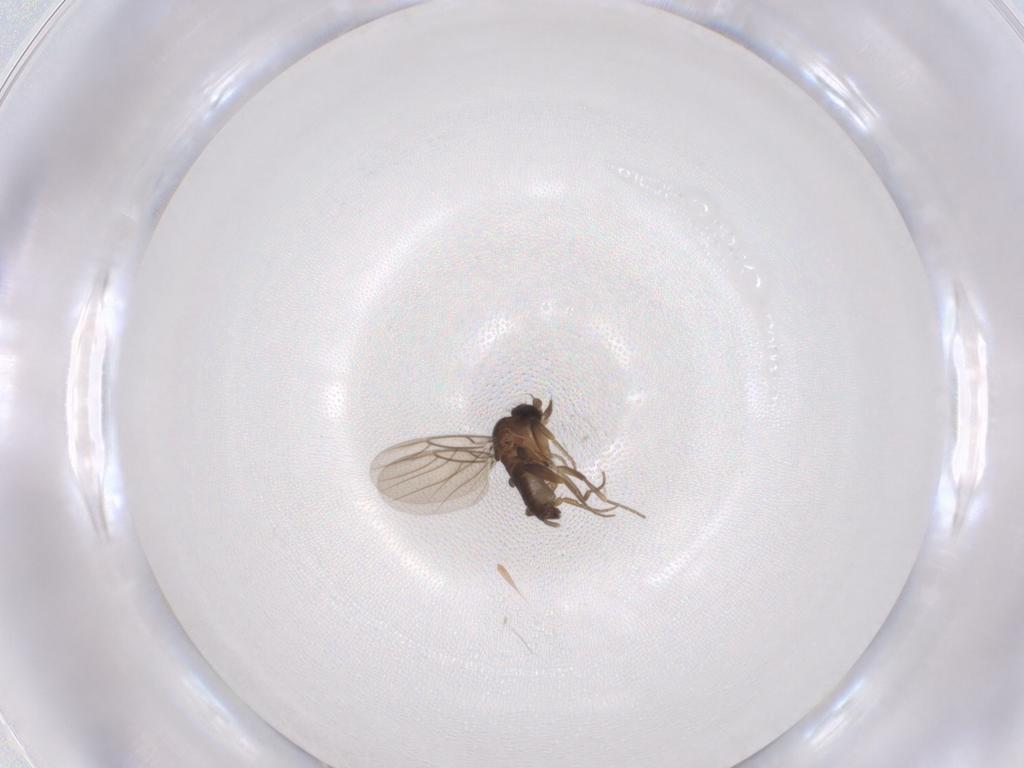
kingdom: Animalia
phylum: Arthropoda
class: Insecta
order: Diptera
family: Phoridae
